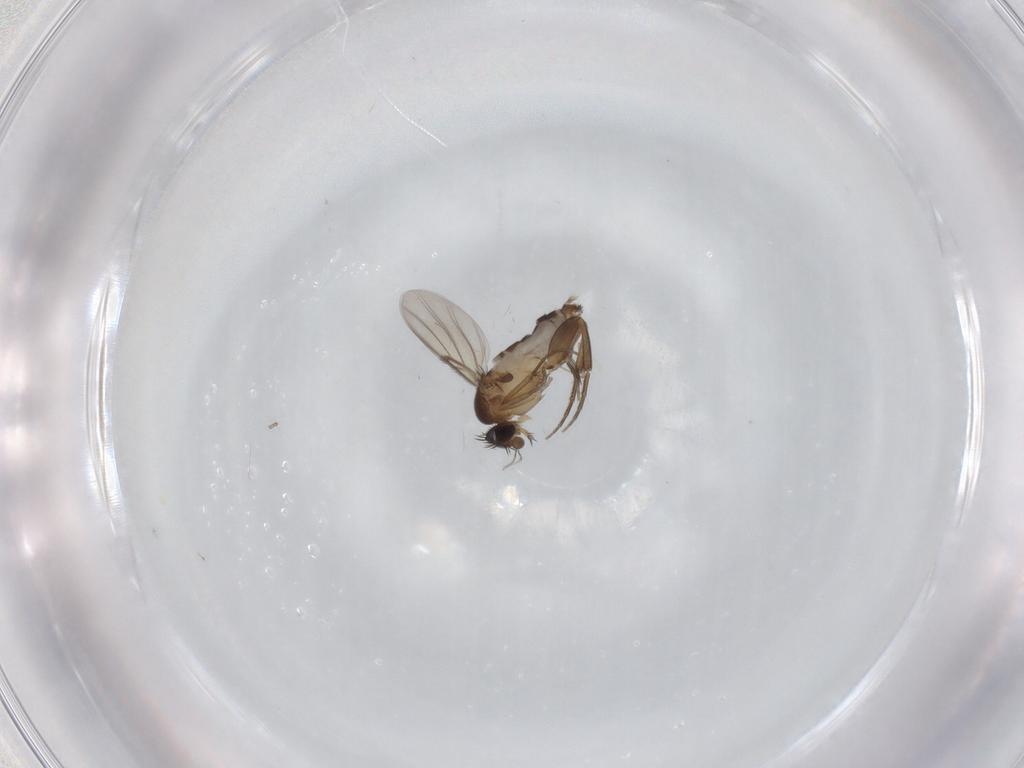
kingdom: Animalia
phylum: Arthropoda
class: Insecta
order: Diptera
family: Phoridae
